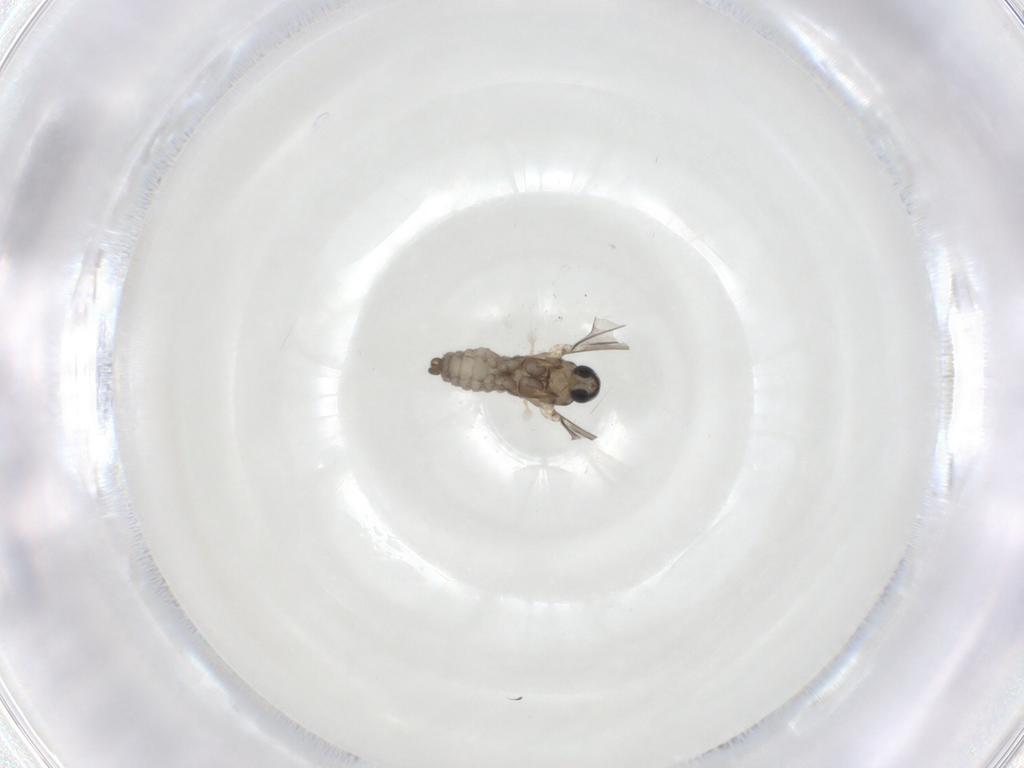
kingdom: Animalia
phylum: Arthropoda
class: Insecta
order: Diptera
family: Cecidomyiidae
